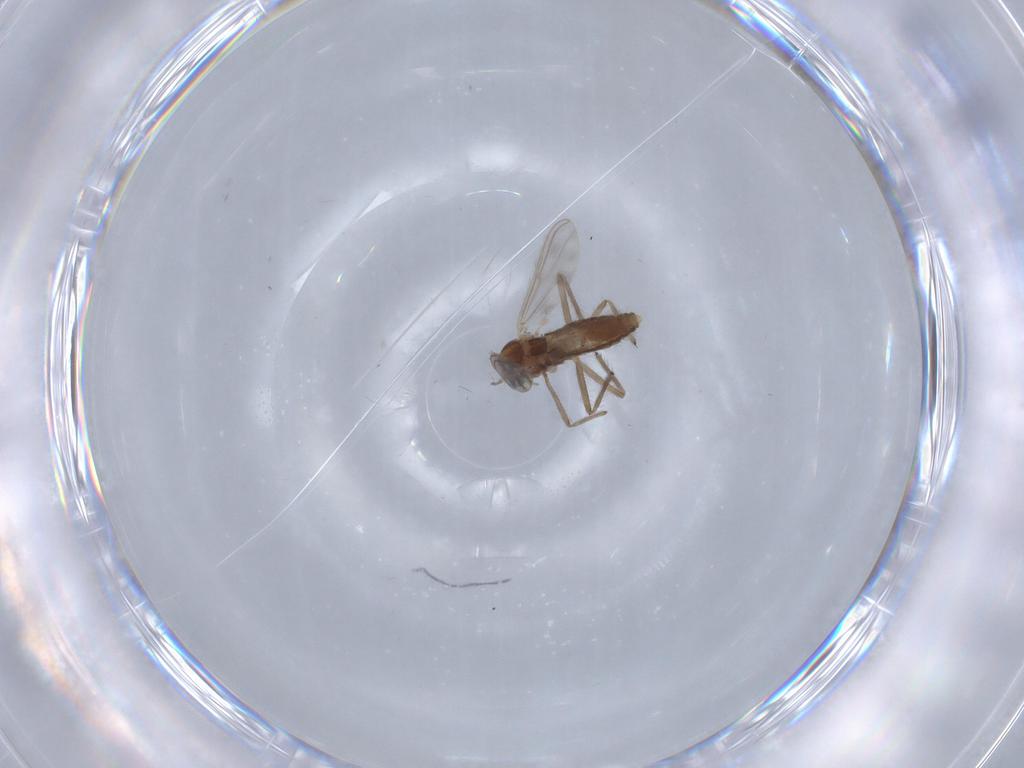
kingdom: Animalia
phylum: Arthropoda
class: Insecta
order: Diptera
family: Chironomidae
